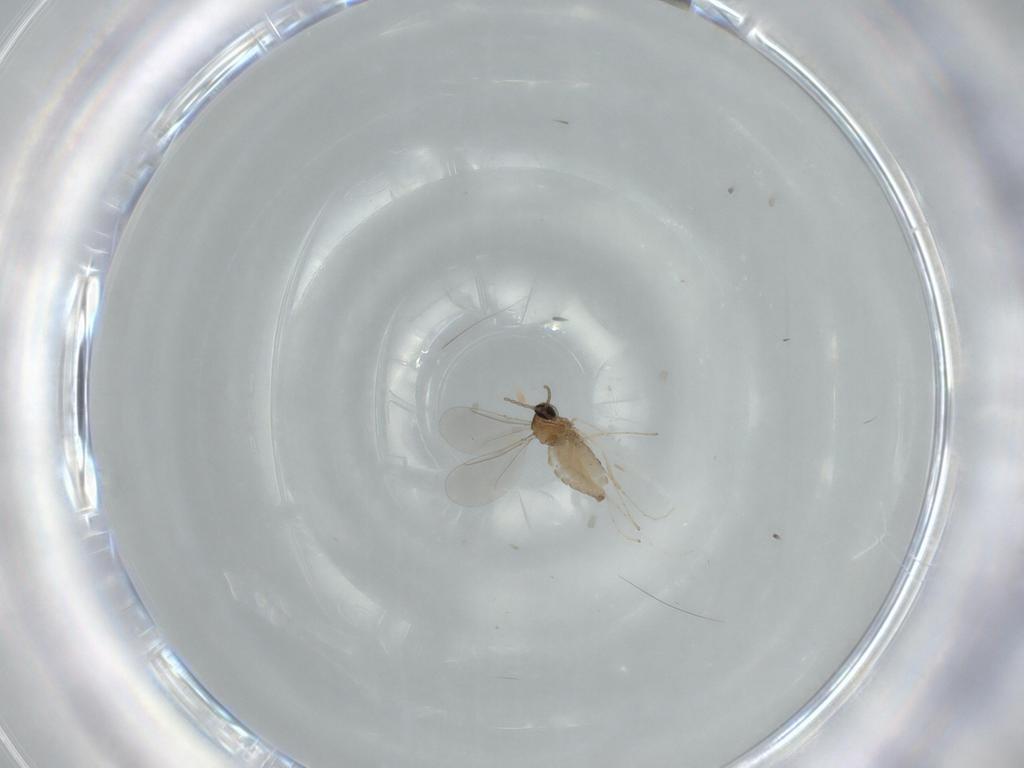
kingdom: Animalia
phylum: Arthropoda
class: Insecta
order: Diptera
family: Cecidomyiidae
